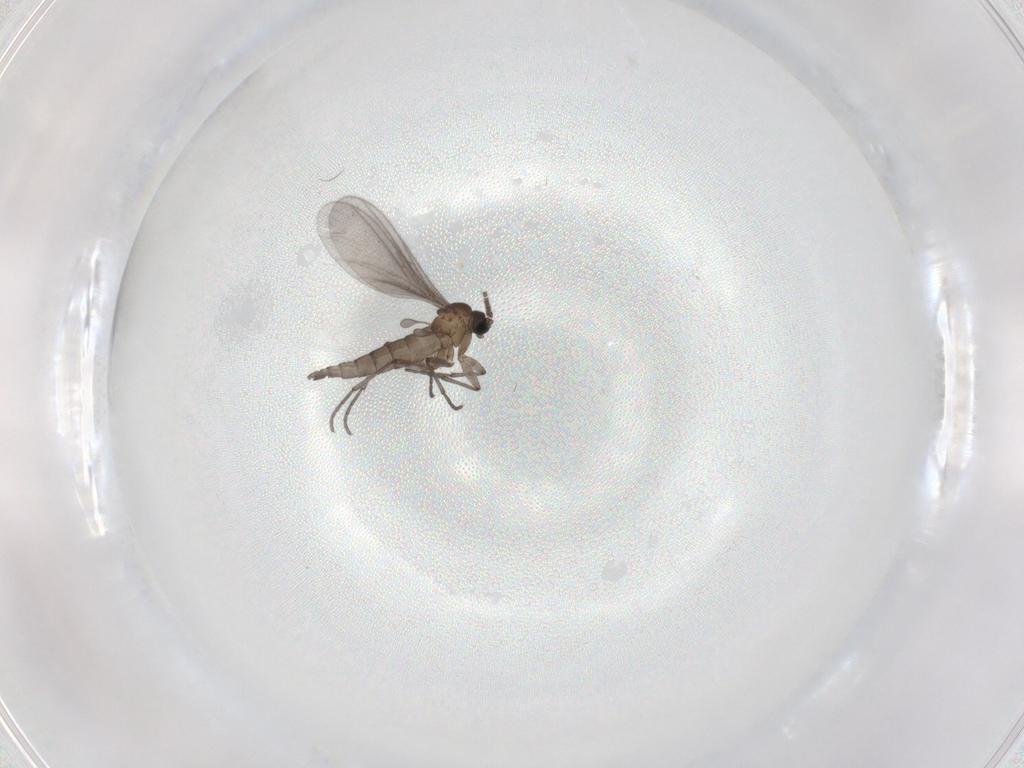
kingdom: Animalia
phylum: Arthropoda
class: Insecta
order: Diptera
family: Sciaridae
